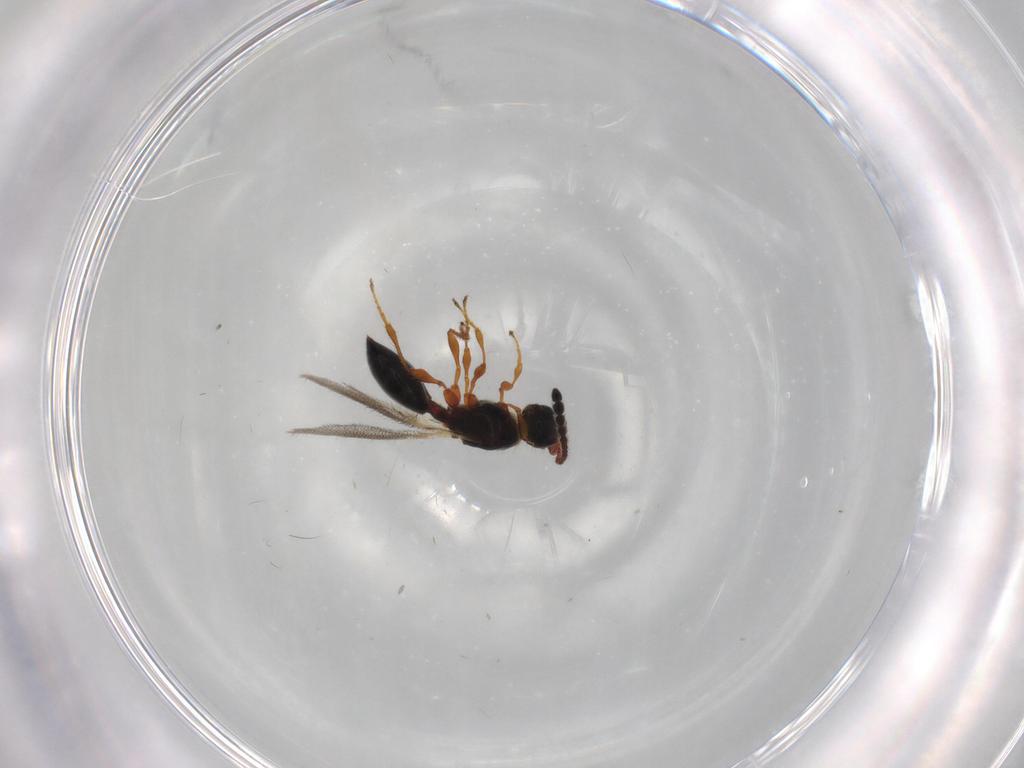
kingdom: Animalia
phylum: Arthropoda
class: Insecta
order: Hymenoptera
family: Diapriidae
